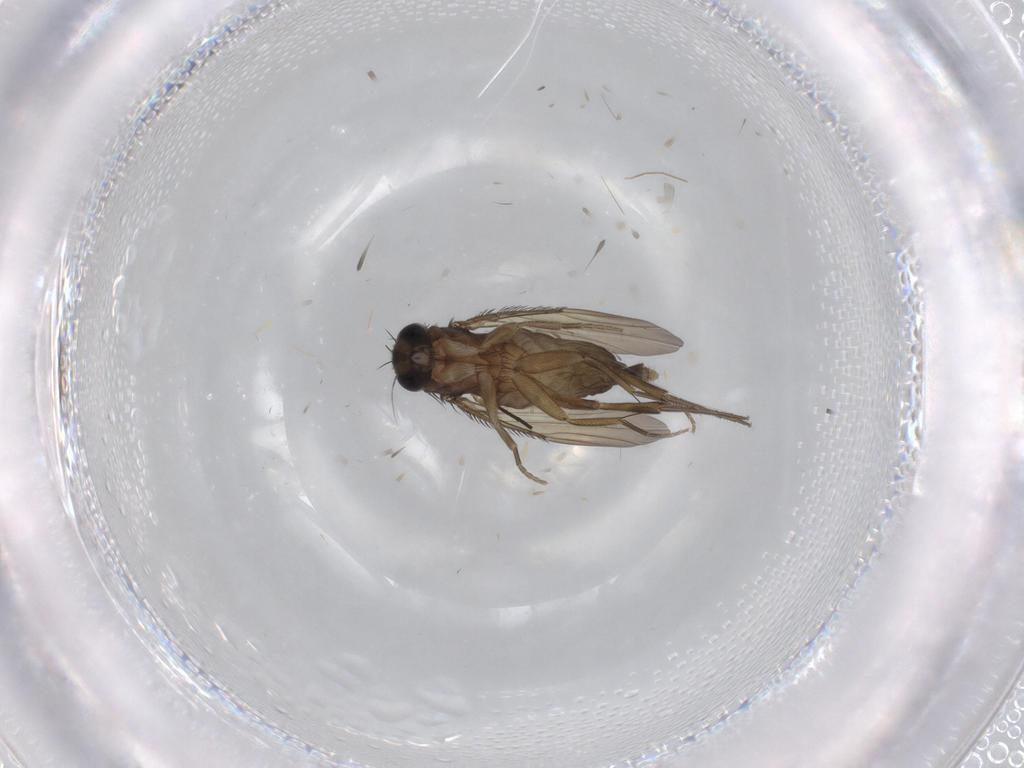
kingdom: Animalia
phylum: Arthropoda
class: Insecta
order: Diptera
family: Phoridae
